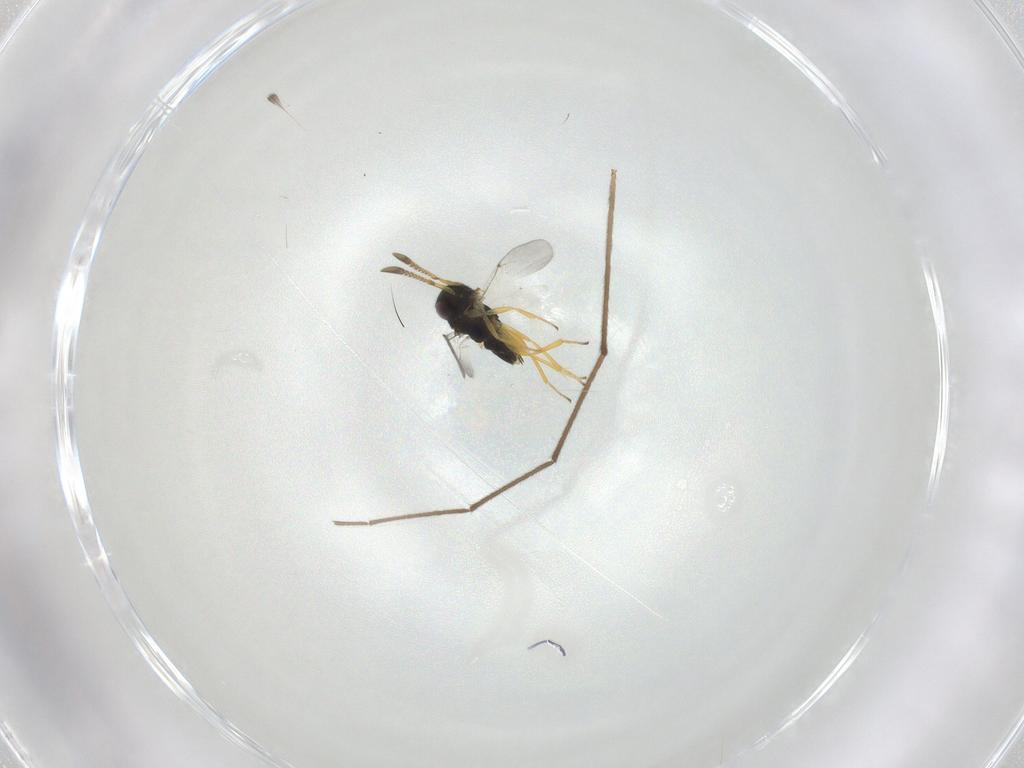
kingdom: Animalia
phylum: Arthropoda
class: Insecta
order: Hymenoptera
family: Encyrtidae
